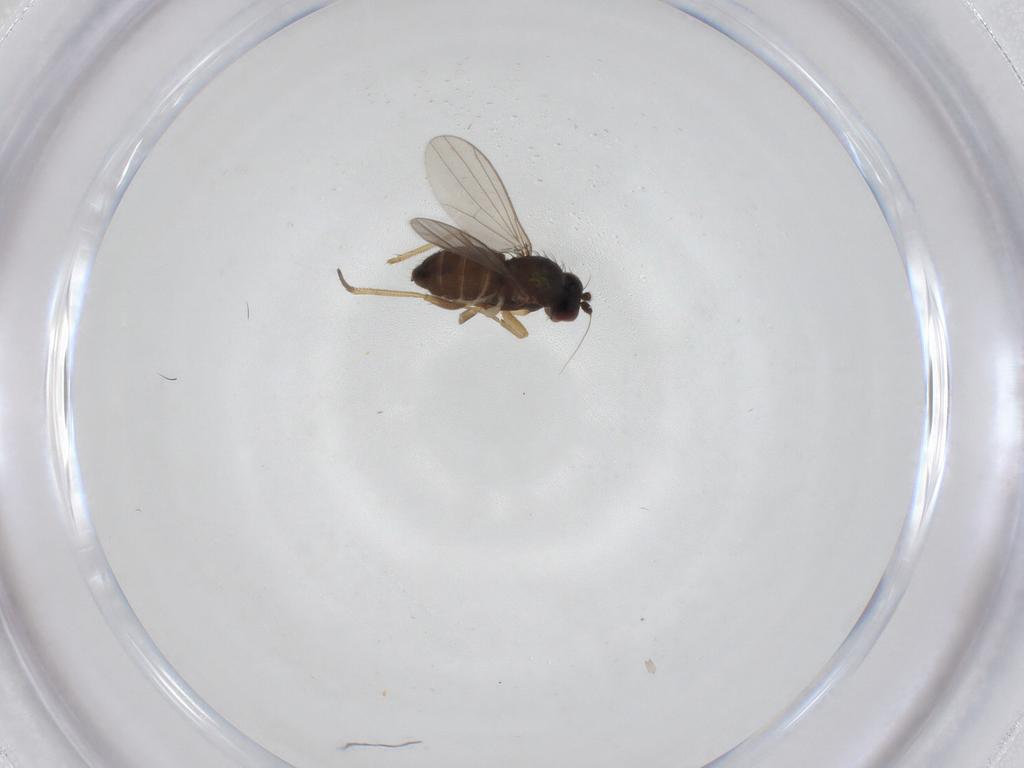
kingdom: Animalia
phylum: Arthropoda
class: Insecta
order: Diptera
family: Dolichopodidae
